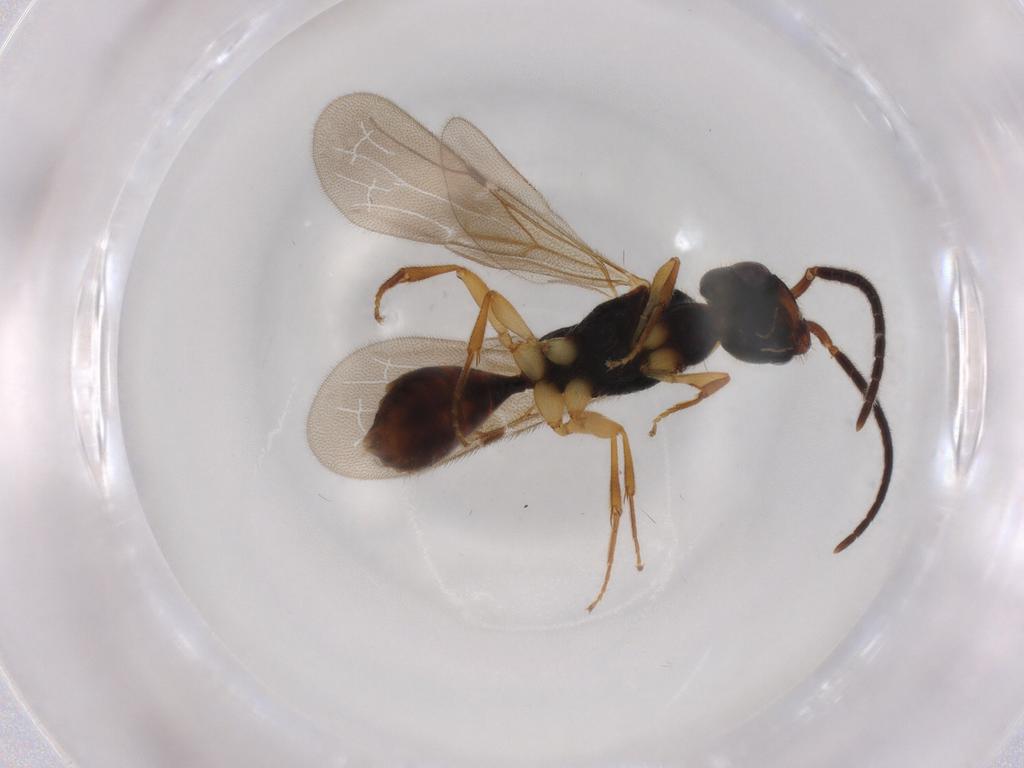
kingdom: Animalia
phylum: Arthropoda
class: Insecta
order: Hymenoptera
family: Bethylidae
